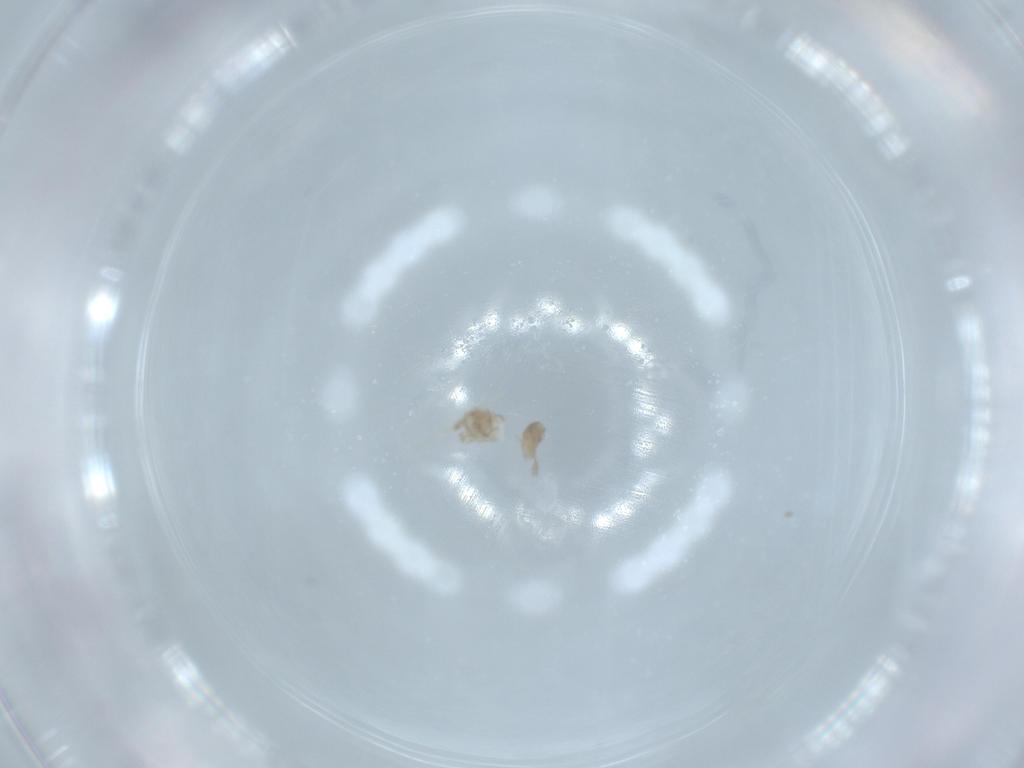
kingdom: Animalia
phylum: Arthropoda
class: Insecta
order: Diptera
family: Cecidomyiidae
